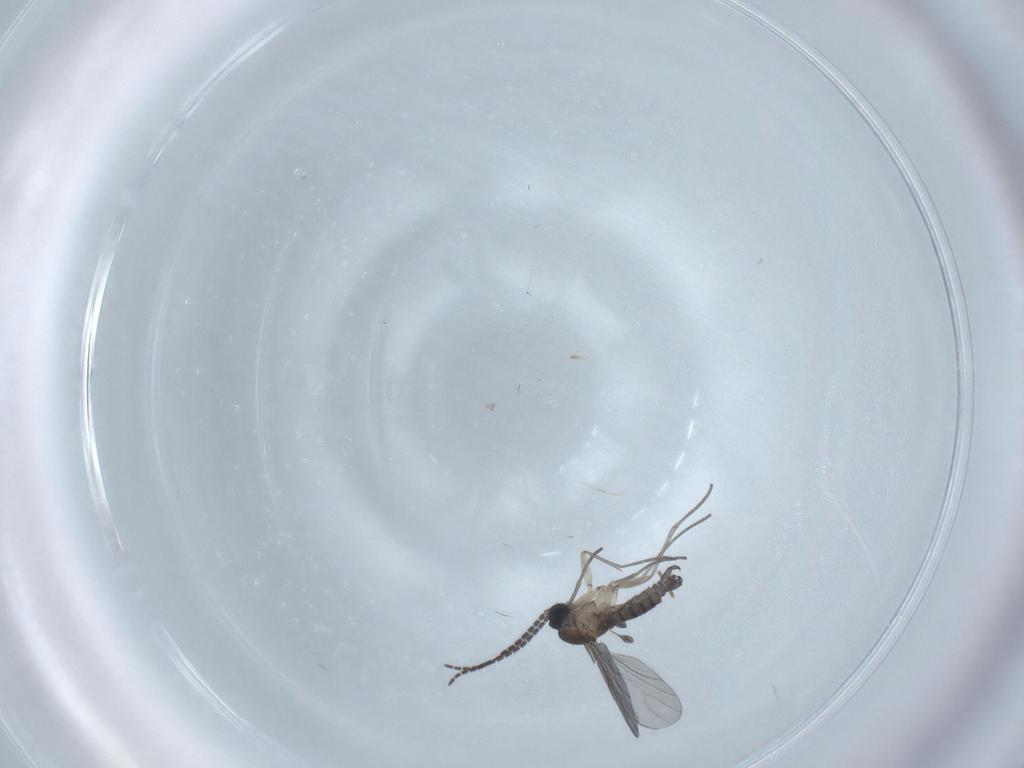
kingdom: Animalia
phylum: Arthropoda
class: Insecta
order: Diptera
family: Sciaridae
